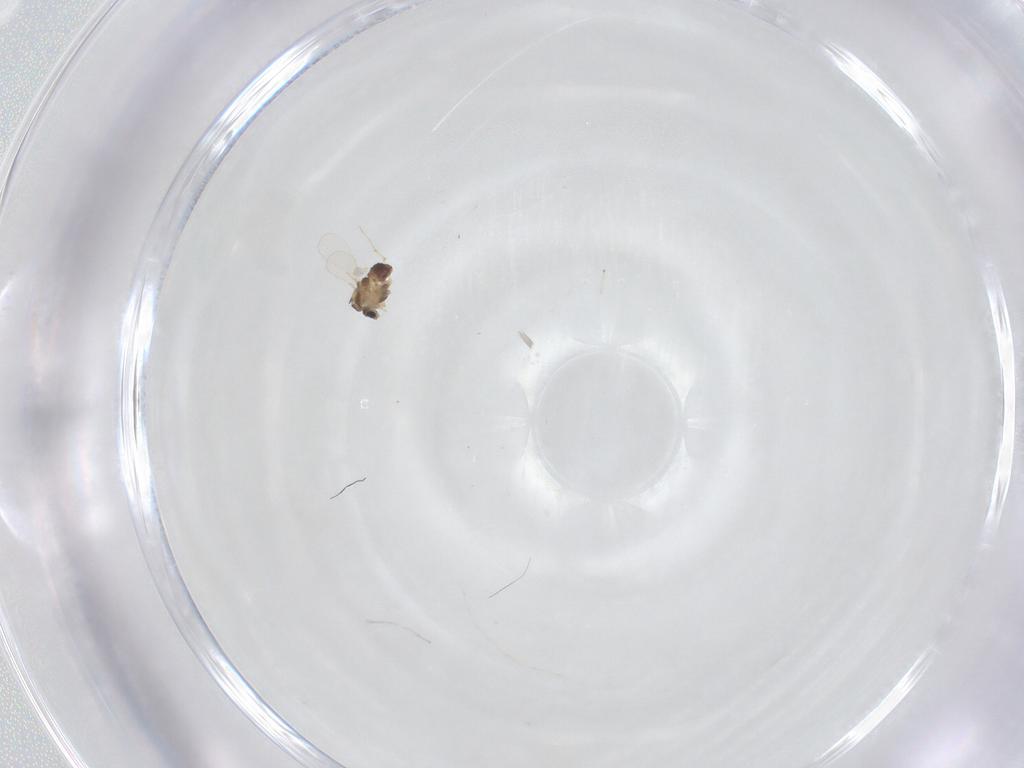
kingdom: Animalia
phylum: Arthropoda
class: Insecta
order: Diptera
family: Chironomidae
